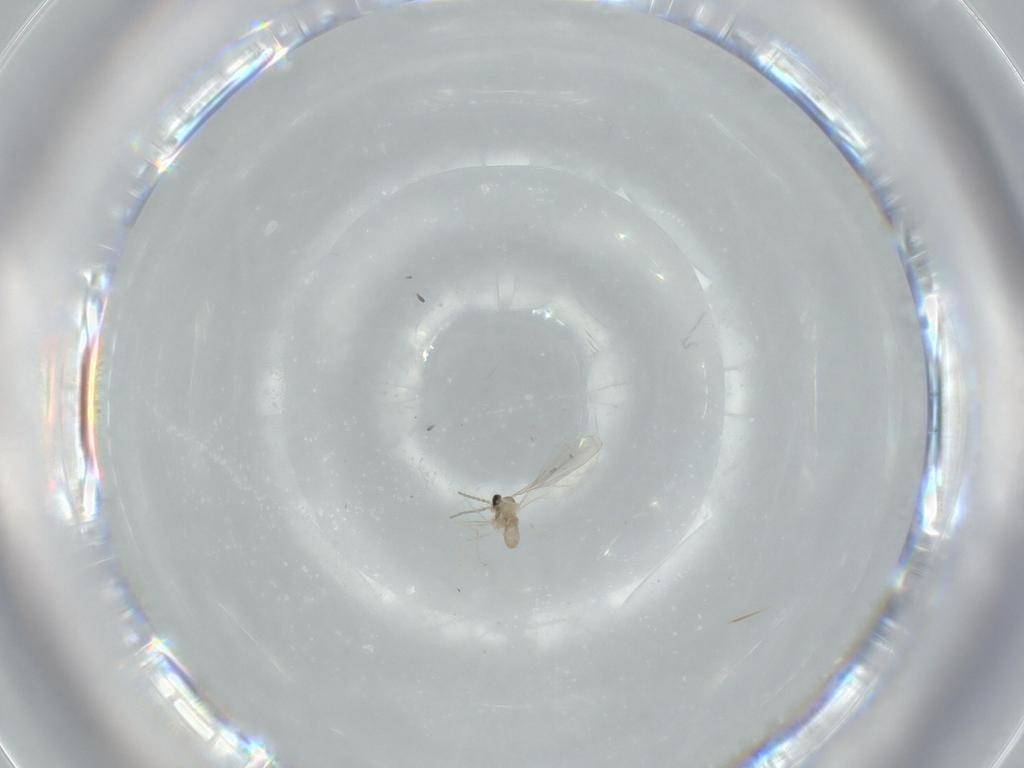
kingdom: Animalia
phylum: Arthropoda
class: Insecta
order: Diptera
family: Cecidomyiidae
